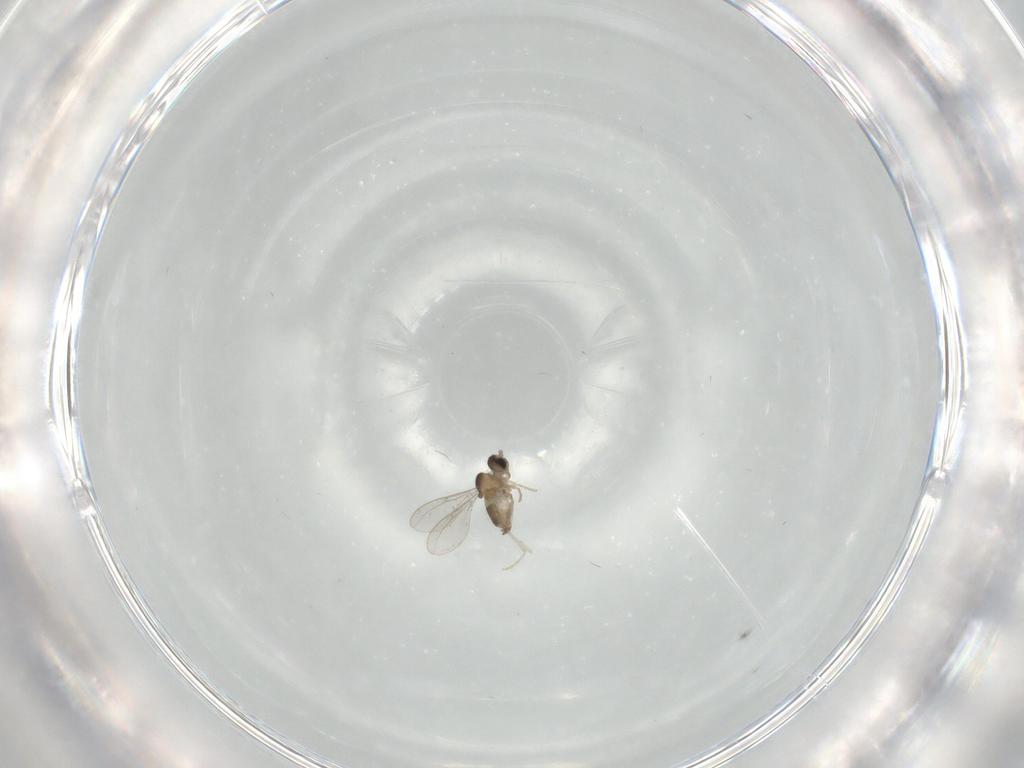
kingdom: Animalia
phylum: Arthropoda
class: Insecta
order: Diptera
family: Cecidomyiidae
